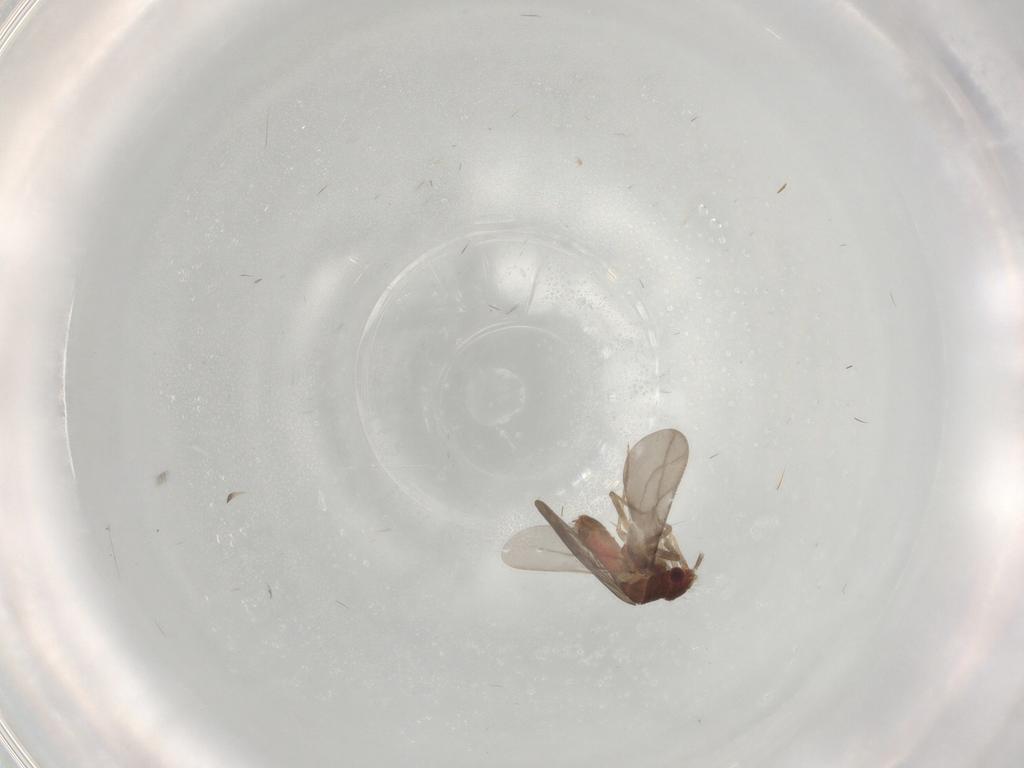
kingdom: Animalia
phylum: Arthropoda
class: Insecta
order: Hemiptera
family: Ceratocombidae
